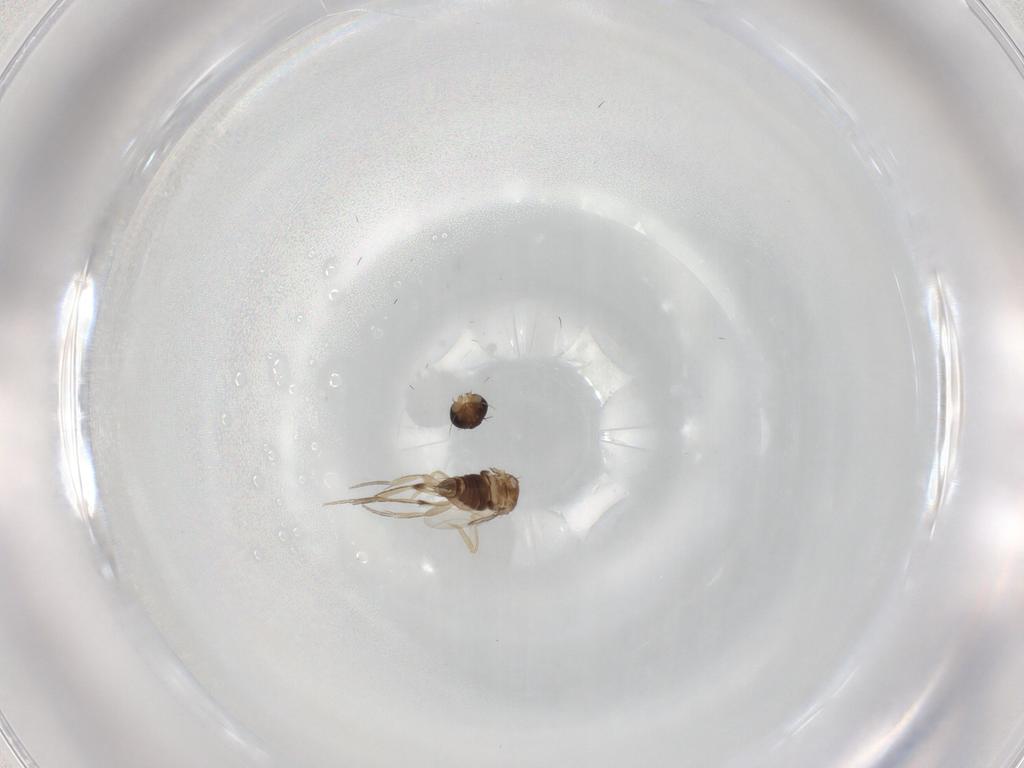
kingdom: Animalia
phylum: Arthropoda
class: Insecta
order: Diptera
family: Phoridae
